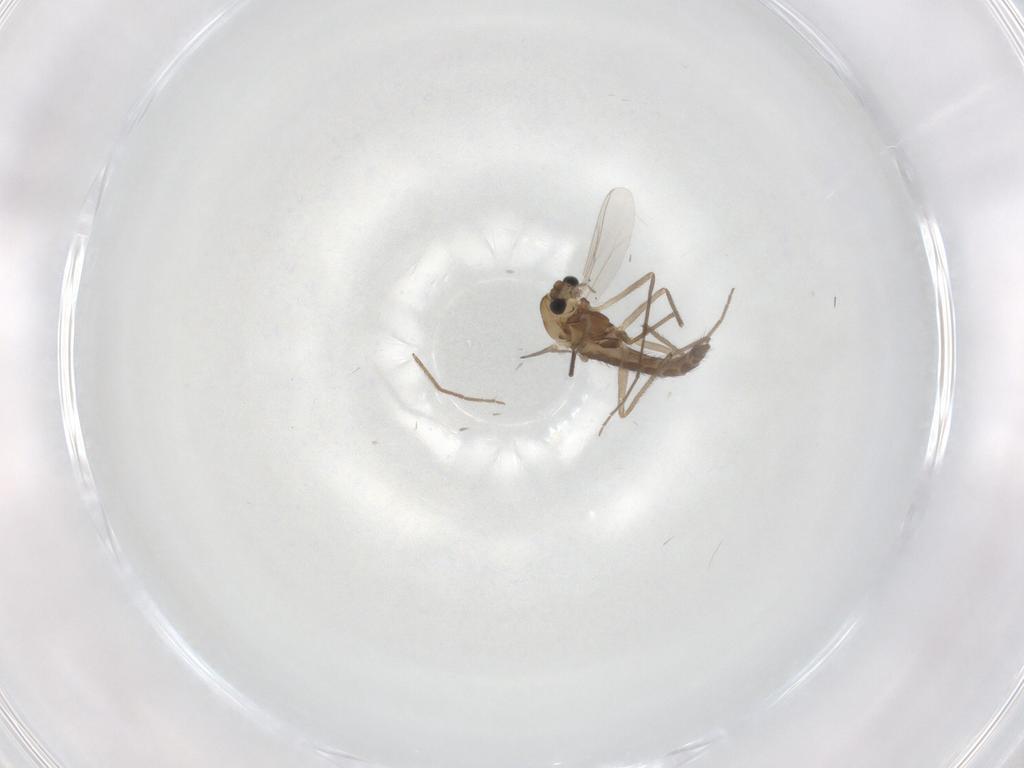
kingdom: Animalia
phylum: Arthropoda
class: Insecta
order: Diptera
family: Chironomidae
